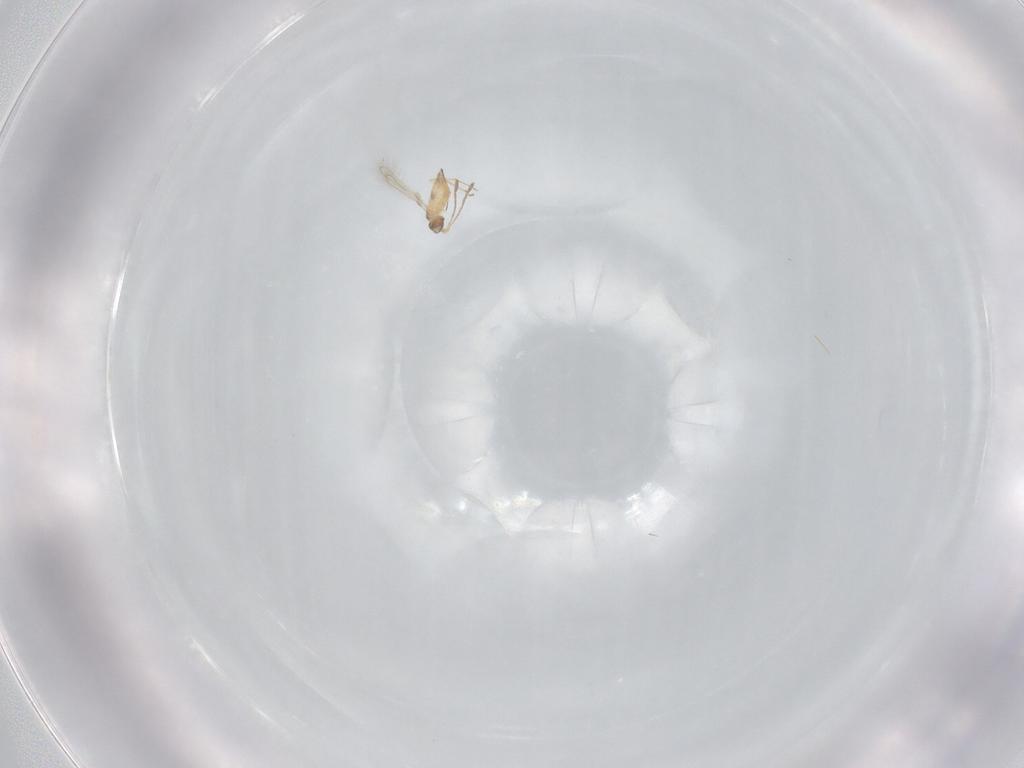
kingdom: Animalia
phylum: Arthropoda
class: Insecta
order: Hymenoptera
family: Mymaridae
